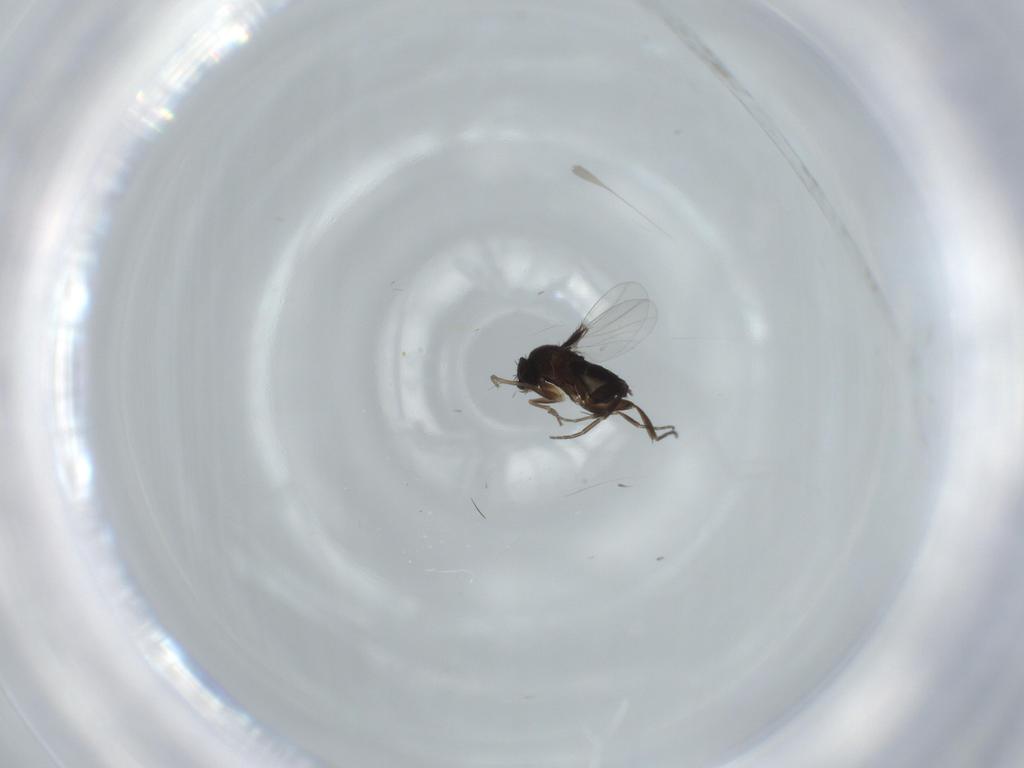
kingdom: Animalia
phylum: Arthropoda
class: Insecta
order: Diptera
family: Phoridae
